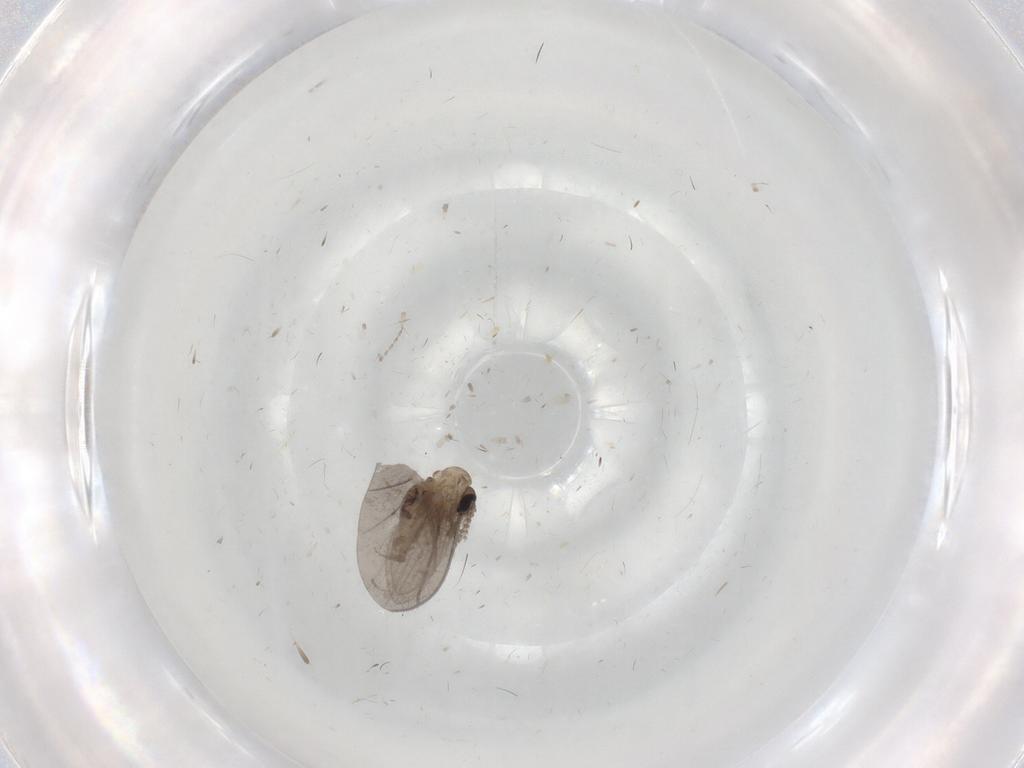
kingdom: Animalia
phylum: Arthropoda
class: Insecta
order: Diptera
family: Psychodidae
